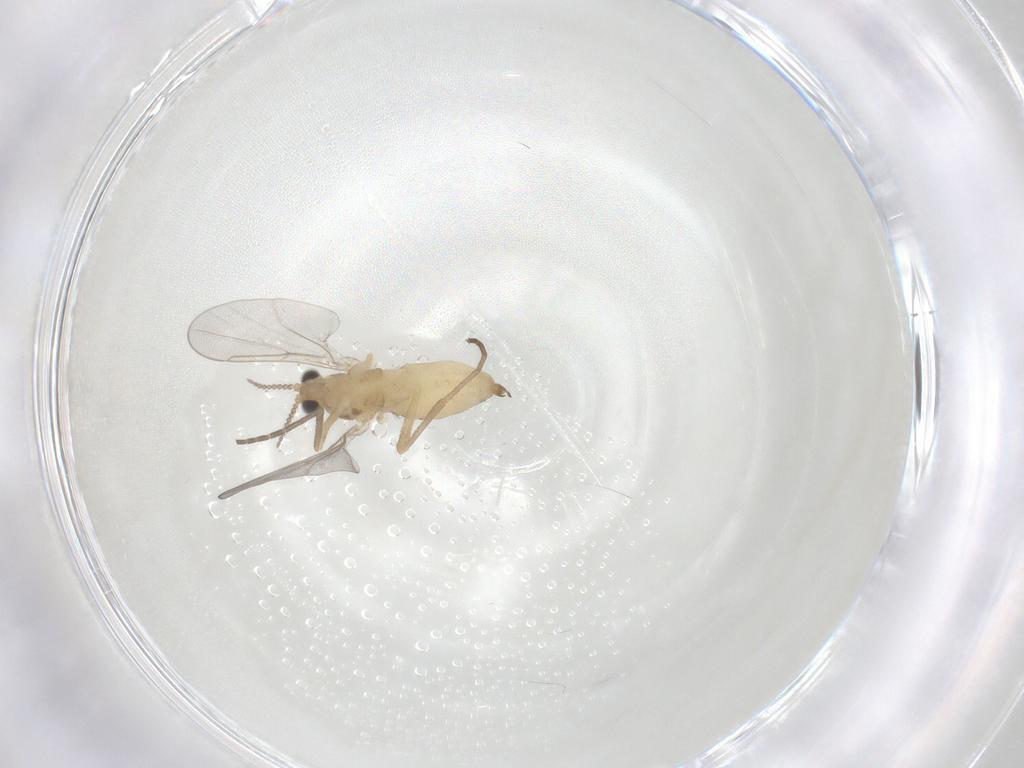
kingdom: Animalia
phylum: Arthropoda
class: Insecta
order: Diptera
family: Cecidomyiidae
